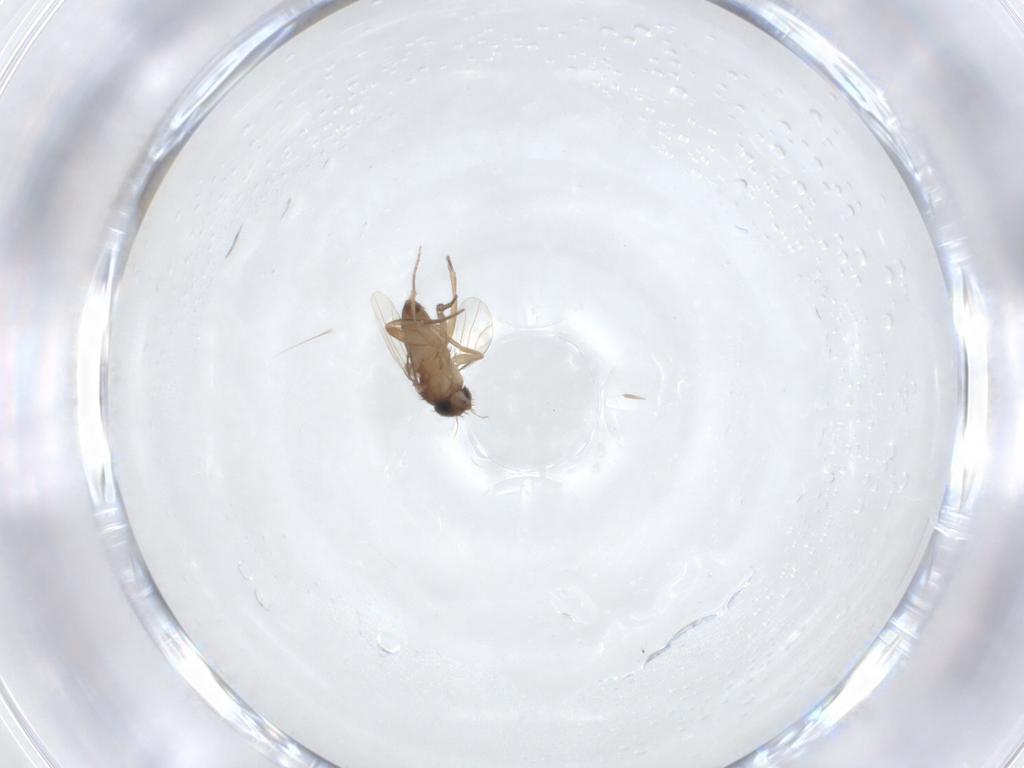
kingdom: Animalia
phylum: Arthropoda
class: Insecta
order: Diptera
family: Phoridae
